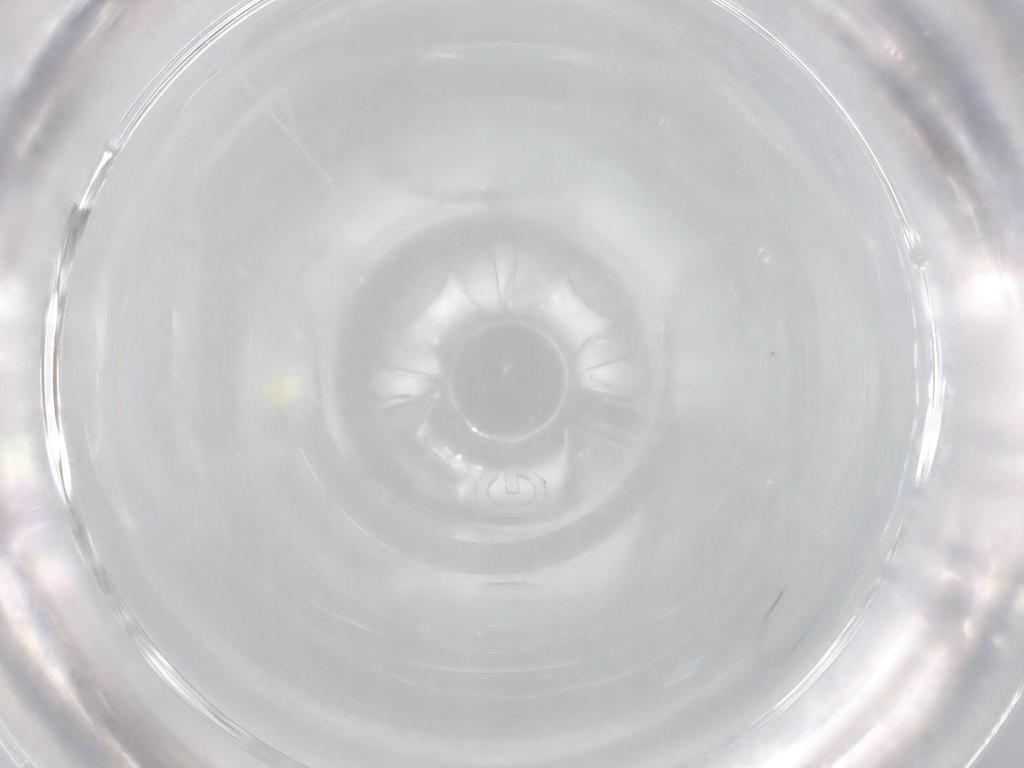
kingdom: Animalia
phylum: Arthropoda
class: Arachnida
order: Trombidiformes
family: Eupodidae
